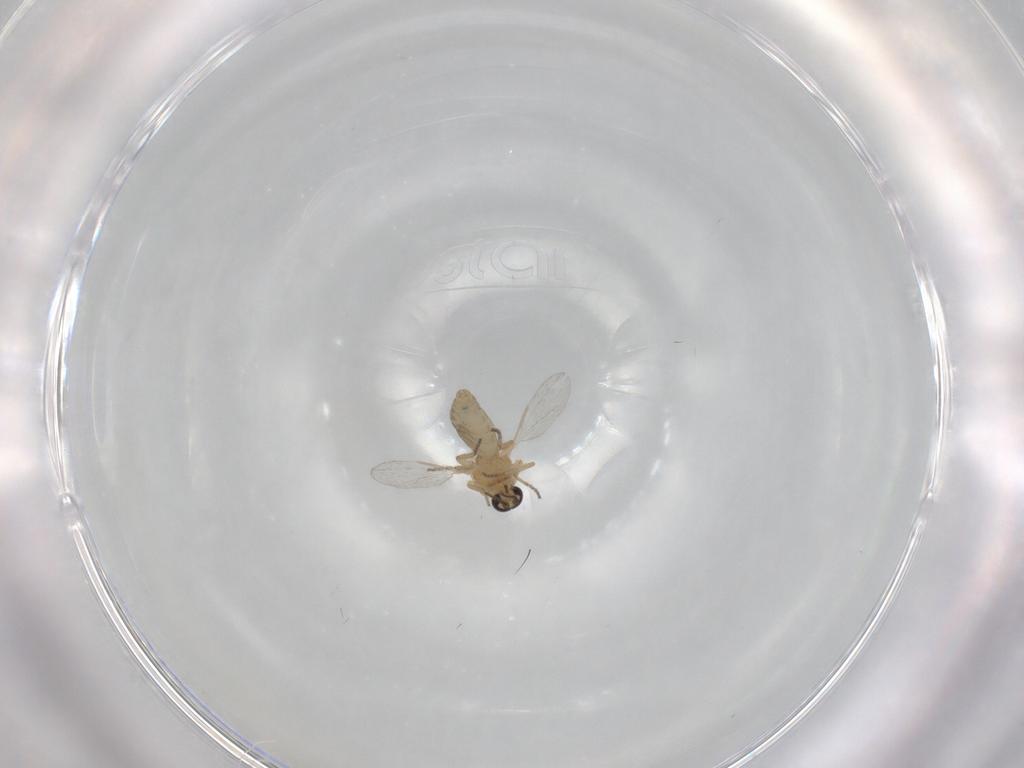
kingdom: Animalia
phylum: Arthropoda
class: Insecta
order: Diptera
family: Ceratopogonidae
